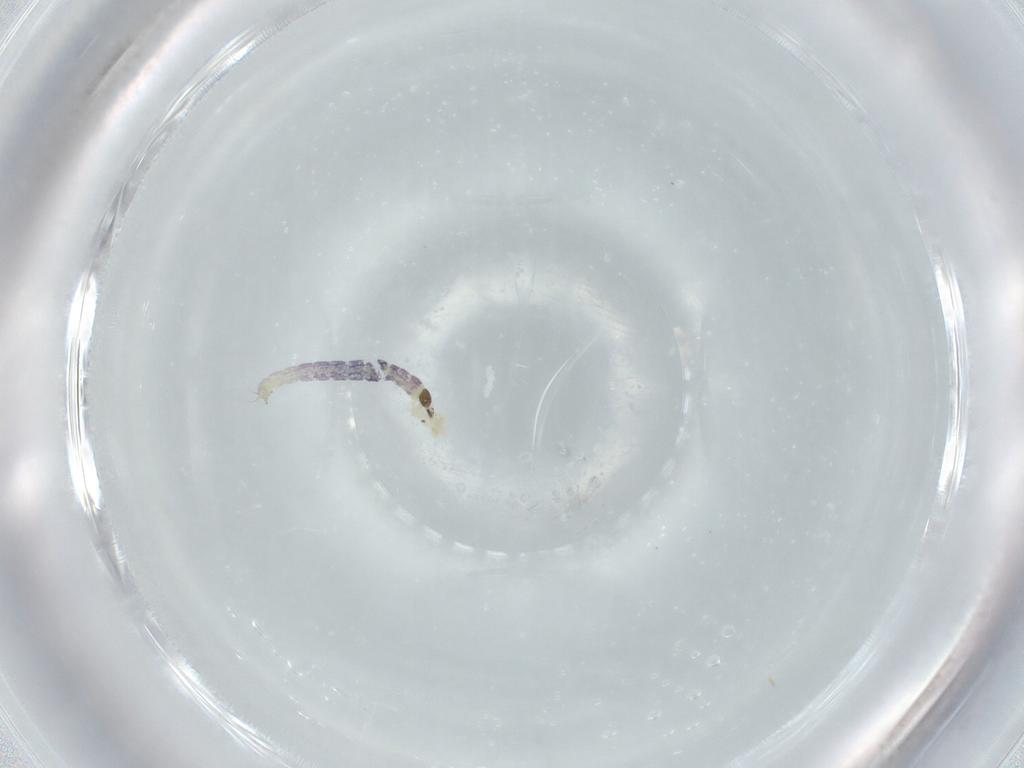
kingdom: Animalia
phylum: Arthropoda
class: Insecta
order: Diptera
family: Chironomidae
